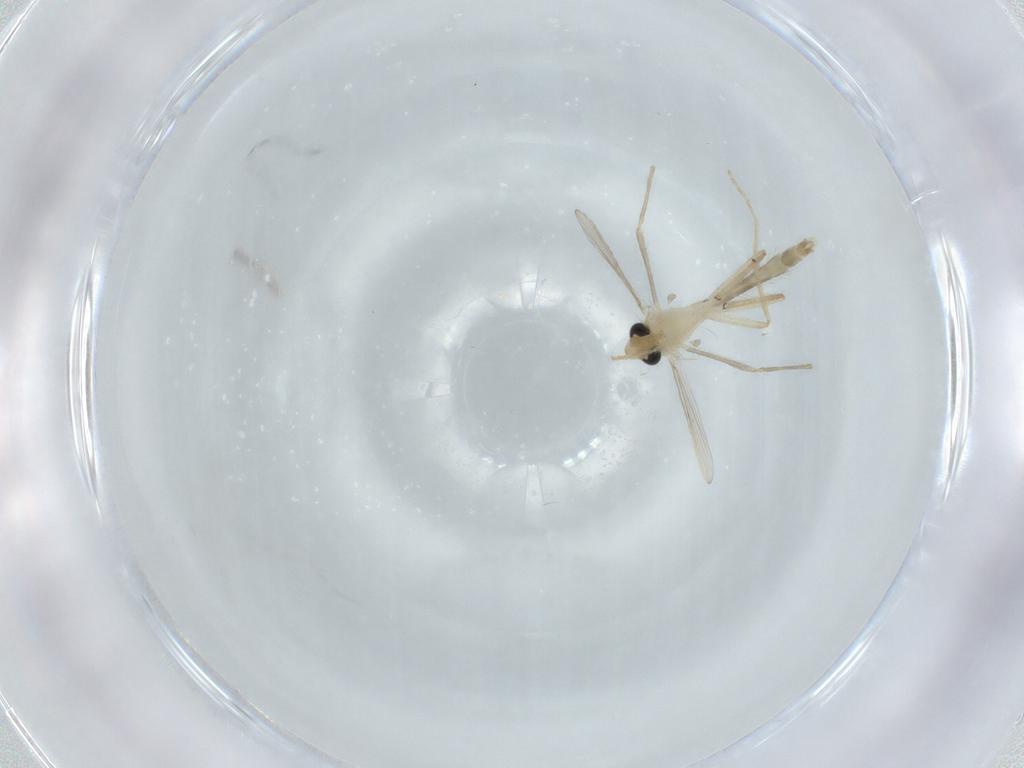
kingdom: Animalia
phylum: Arthropoda
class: Insecta
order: Diptera
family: Chironomidae
